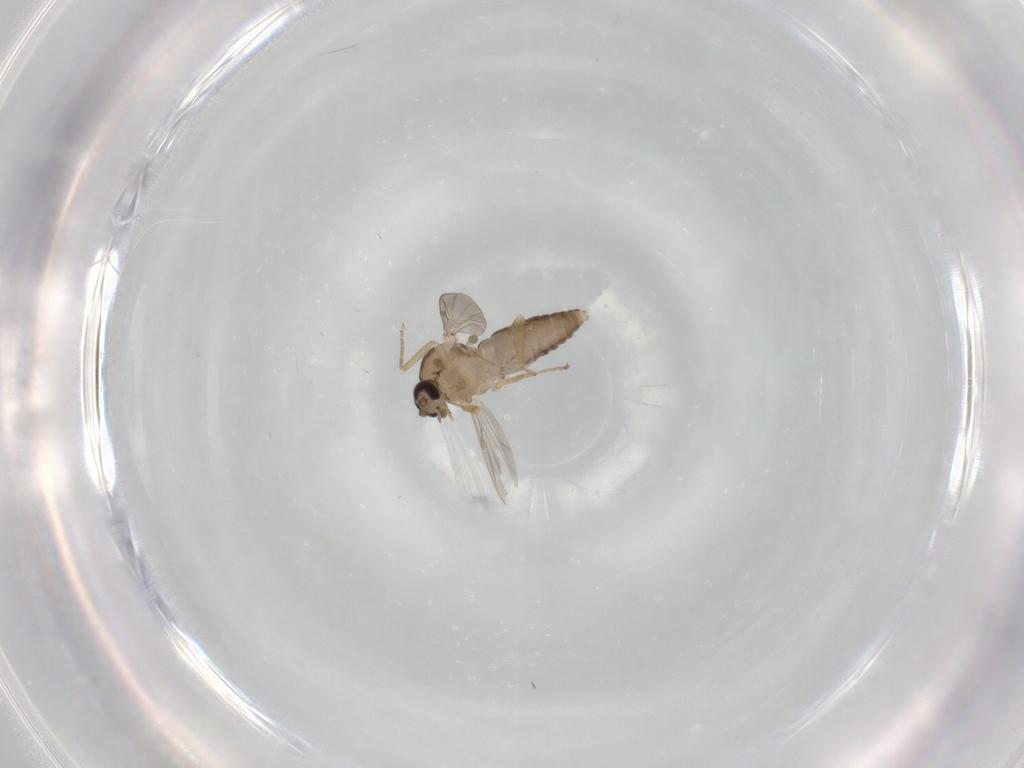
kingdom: Animalia
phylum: Arthropoda
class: Insecta
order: Diptera
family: Ceratopogonidae
